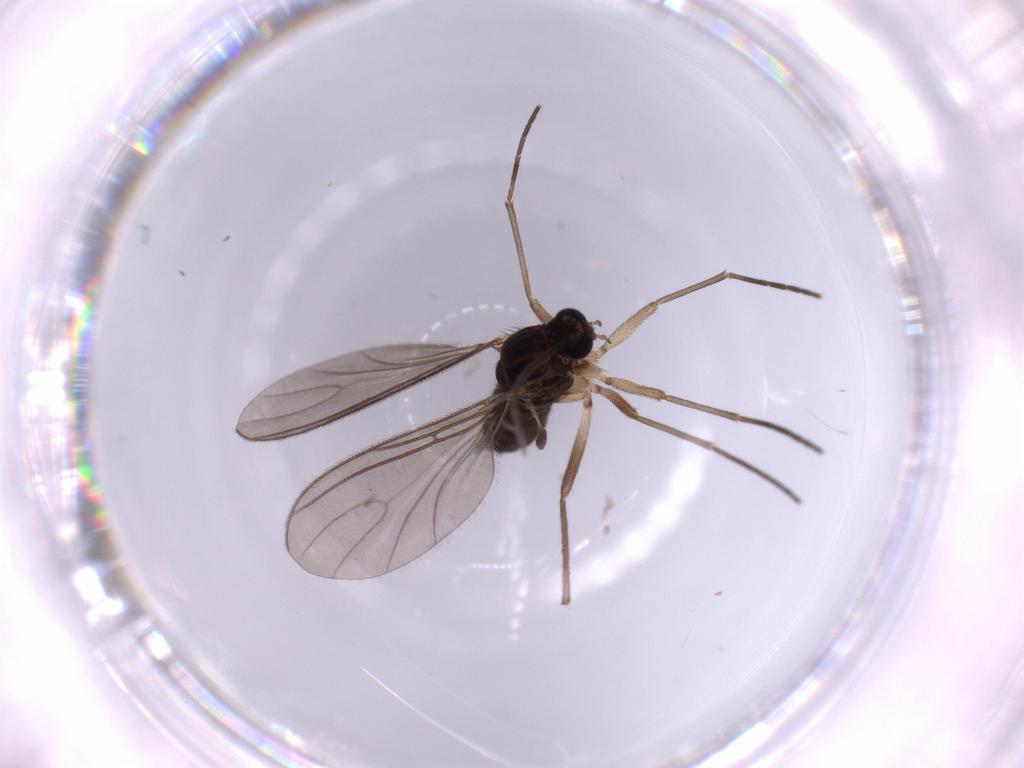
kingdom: Animalia
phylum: Arthropoda
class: Insecta
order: Diptera
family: Sciaridae
